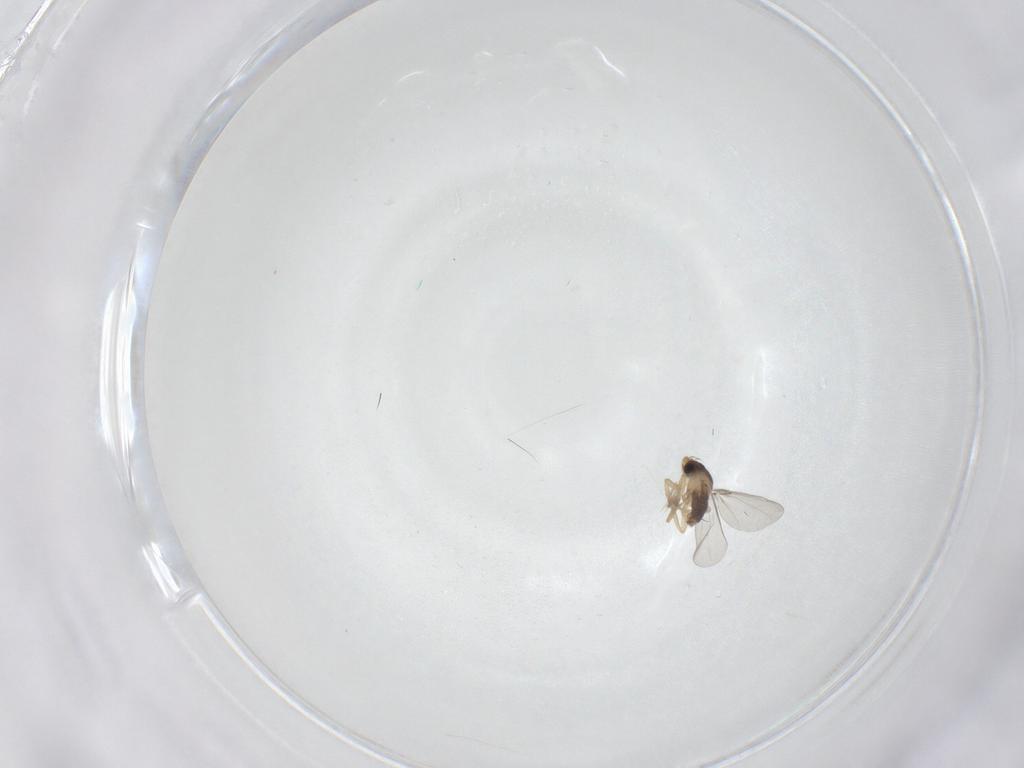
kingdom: Animalia
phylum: Arthropoda
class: Insecta
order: Diptera
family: Phoridae
